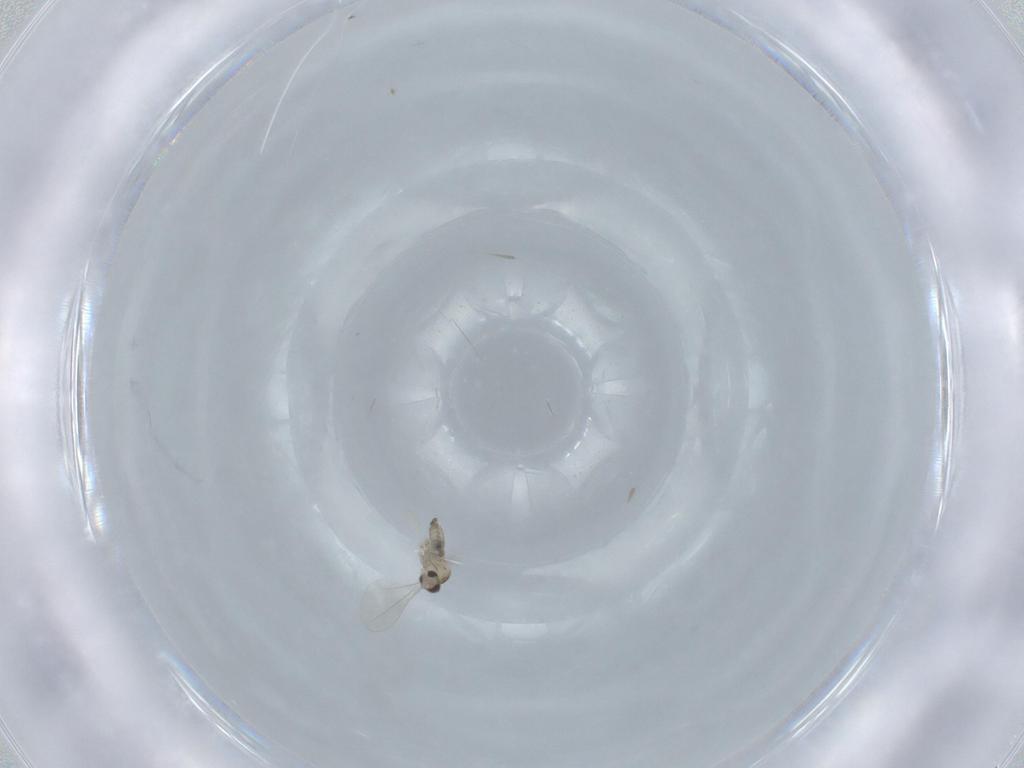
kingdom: Animalia
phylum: Arthropoda
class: Insecta
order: Diptera
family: Cecidomyiidae
